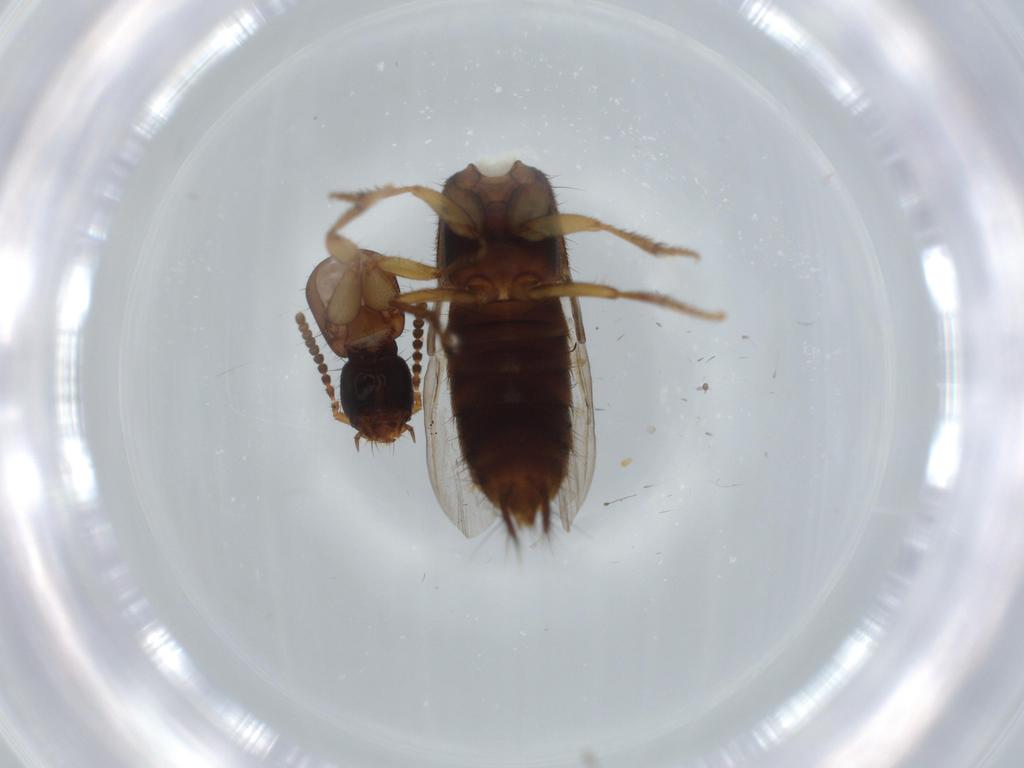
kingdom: Animalia
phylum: Arthropoda
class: Insecta
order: Coleoptera
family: Staphylinidae
